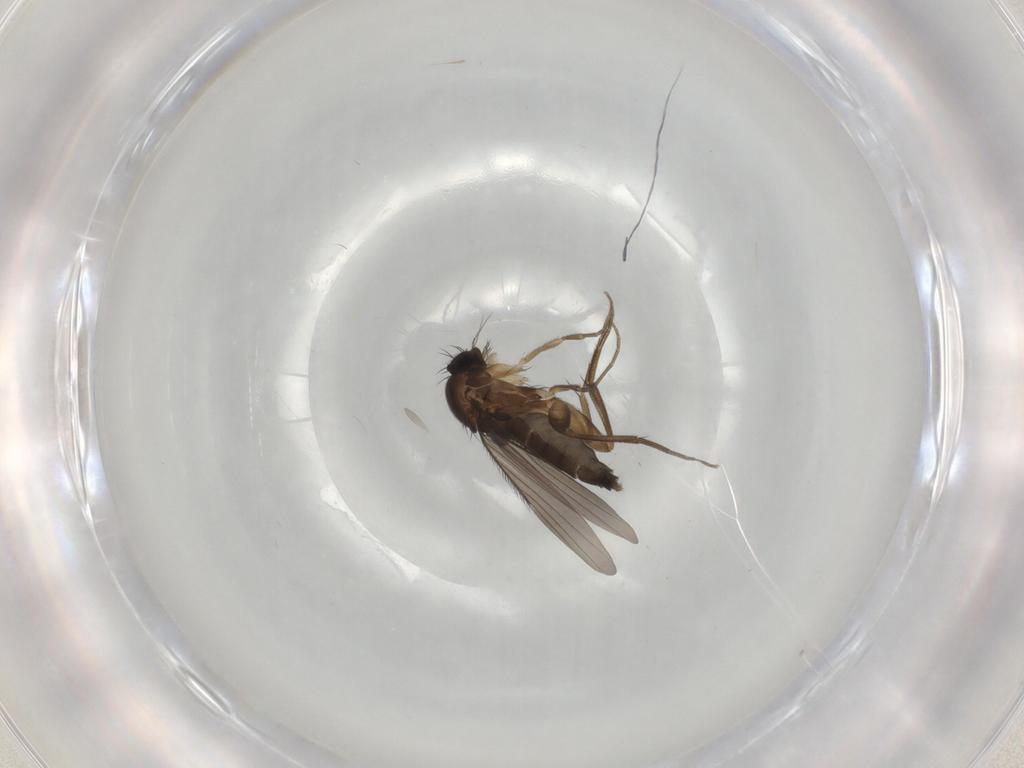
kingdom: Animalia
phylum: Arthropoda
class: Insecta
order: Diptera
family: Phoridae
